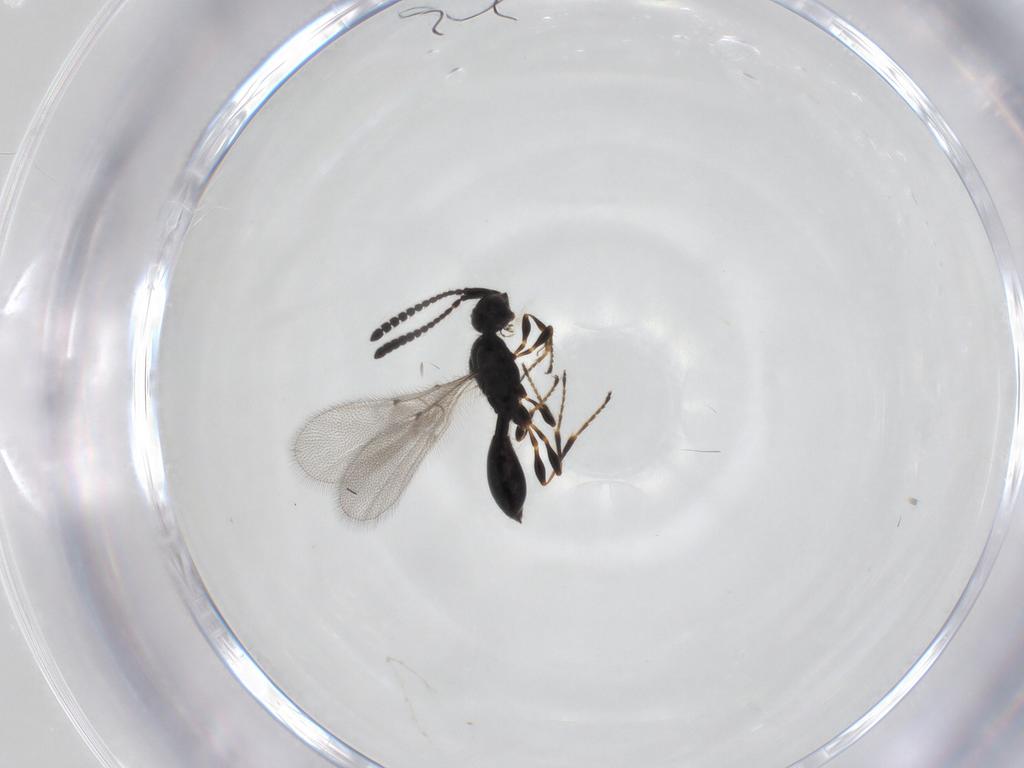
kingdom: Animalia
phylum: Arthropoda
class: Insecta
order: Hymenoptera
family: Diapriidae
